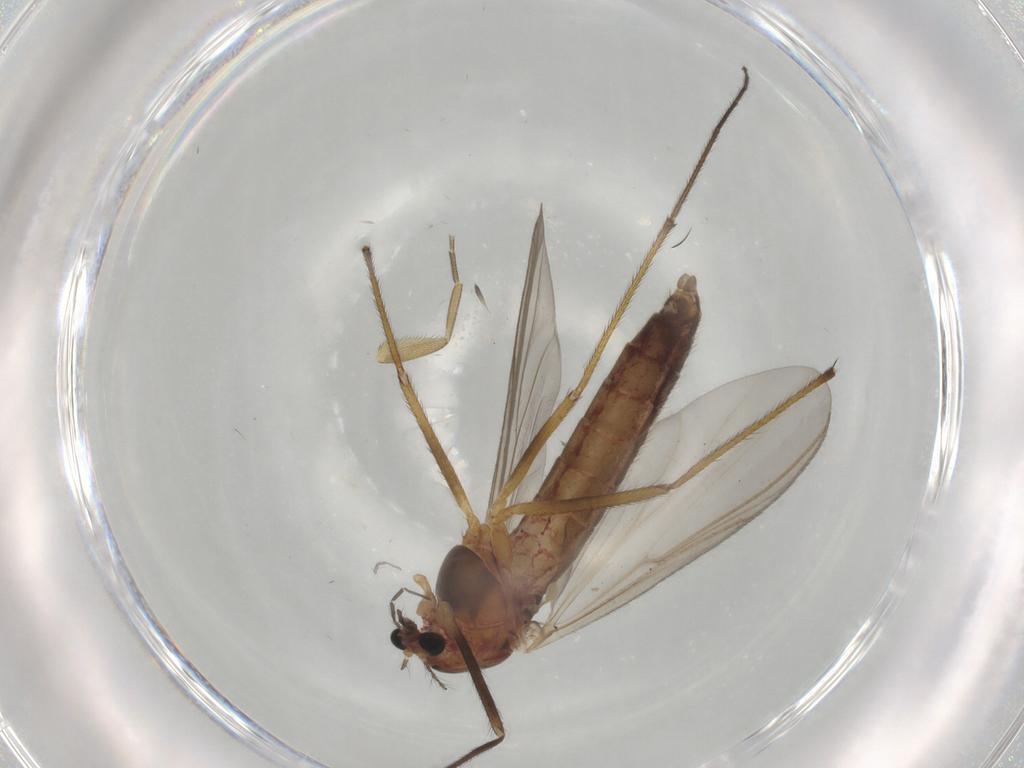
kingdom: Animalia
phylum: Arthropoda
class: Insecta
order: Diptera
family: Chironomidae
